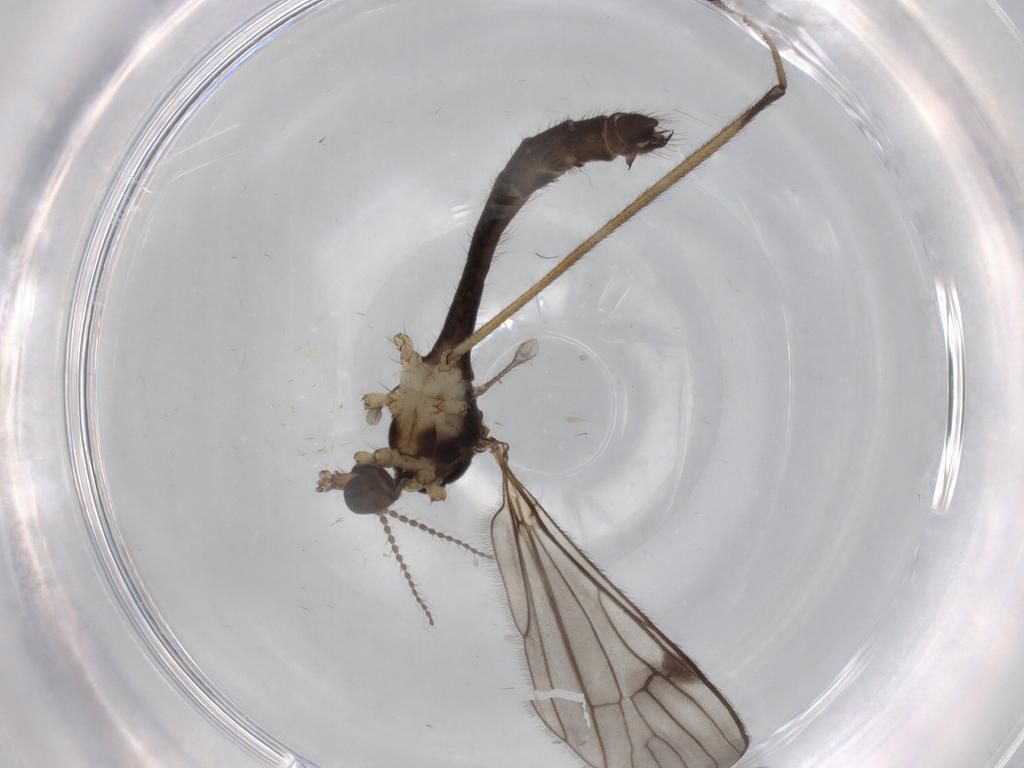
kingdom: Animalia
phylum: Arthropoda
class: Insecta
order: Diptera
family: Limoniidae
